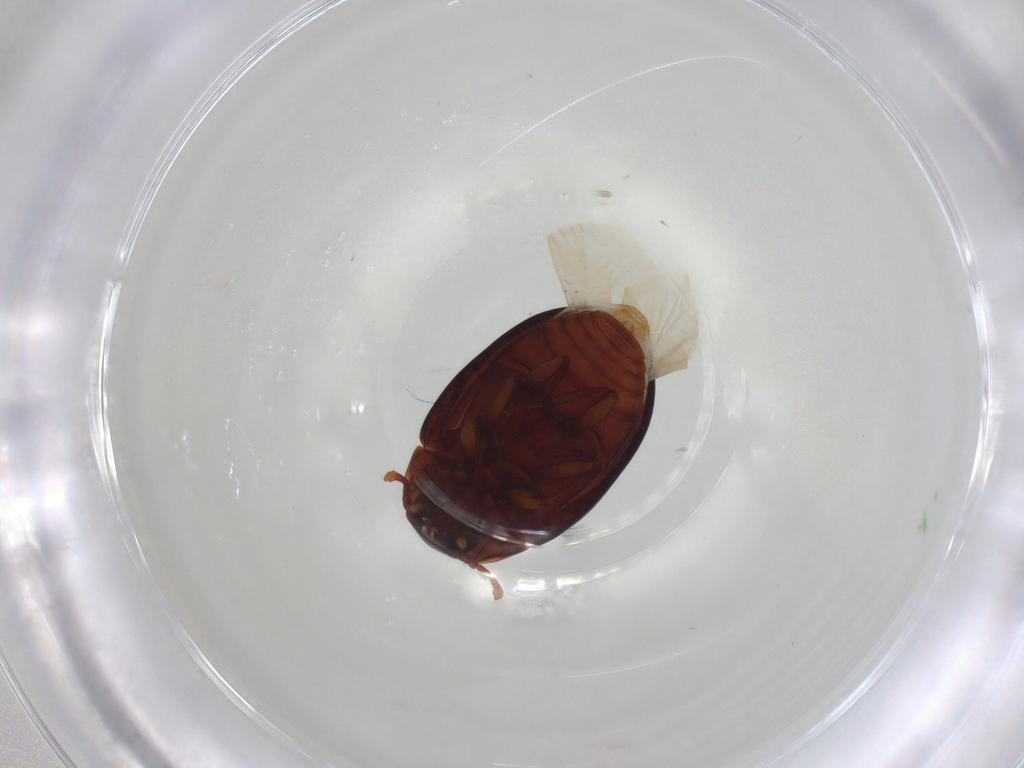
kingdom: Animalia
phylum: Arthropoda
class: Insecta
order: Coleoptera
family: Zopheridae
